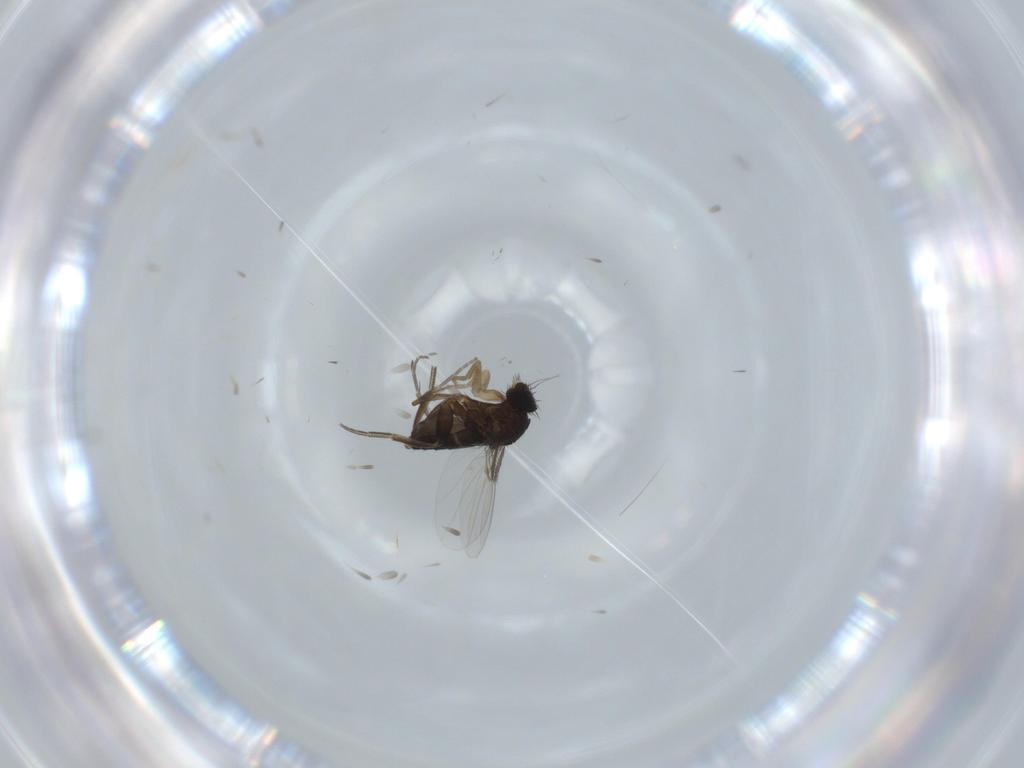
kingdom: Animalia
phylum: Arthropoda
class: Insecta
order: Diptera
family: Phoridae
